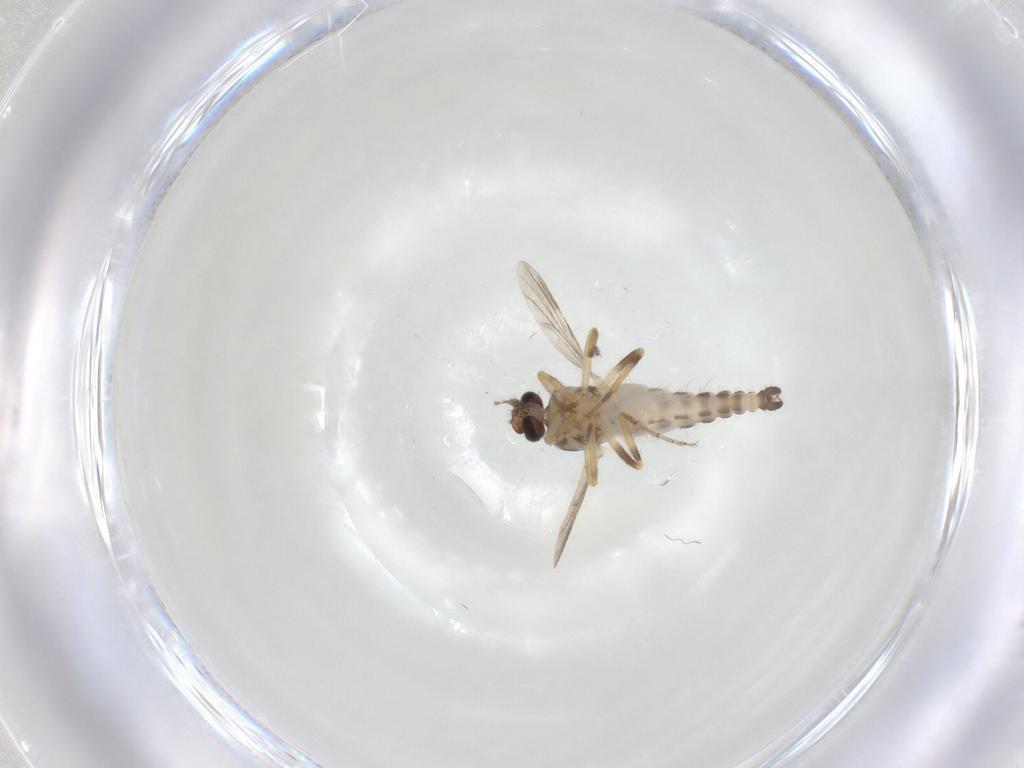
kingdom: Animalia
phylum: Arthropoda
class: Insecta
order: Diptera
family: Ceratopogonidae
